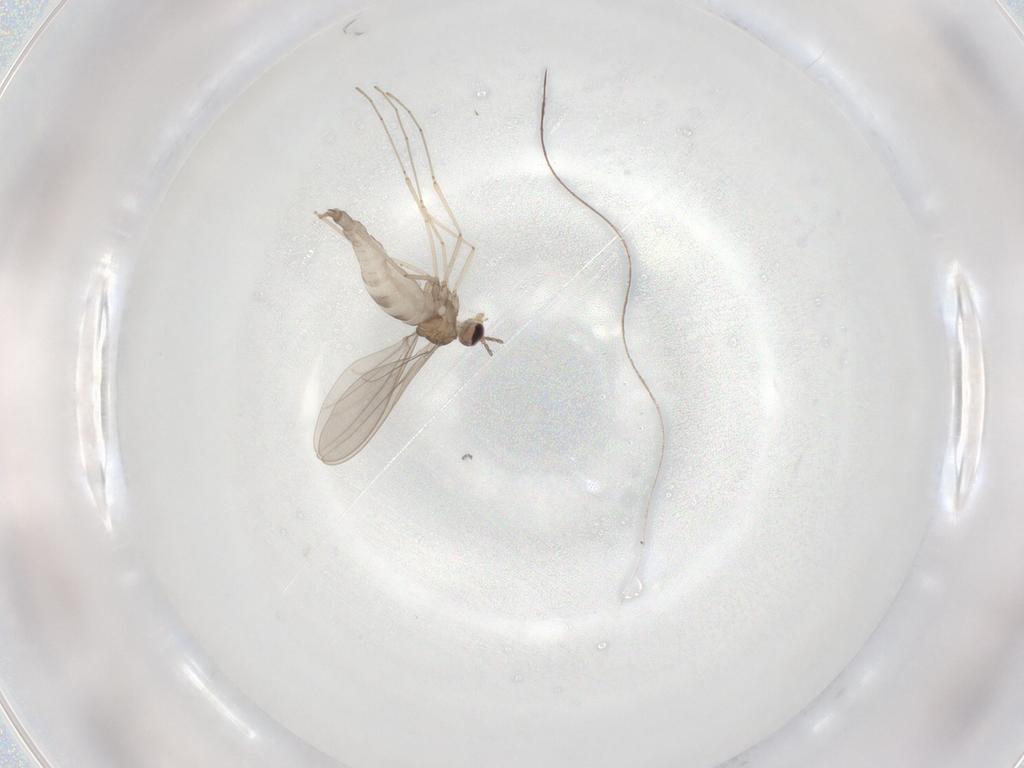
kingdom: Animalia
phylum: Arthropoda
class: Insecta
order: Diptera
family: Cecidomyiidae
